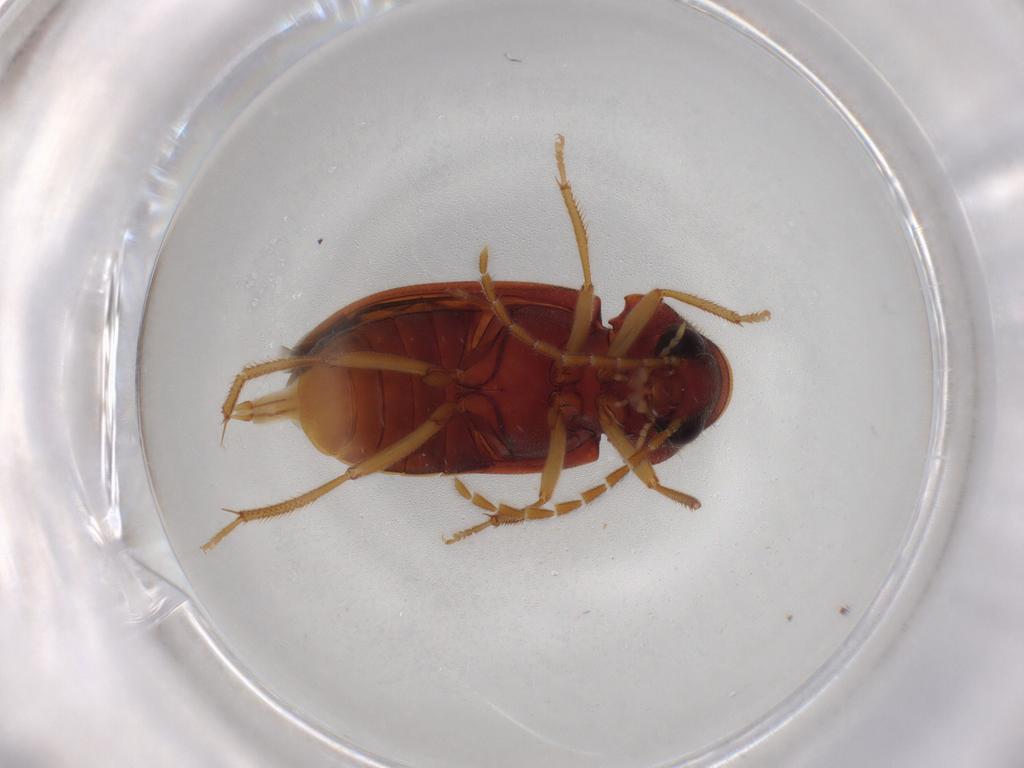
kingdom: Animalia
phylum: Arthropoda
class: Insecta
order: Coleoptera
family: Ptilodactylidae
